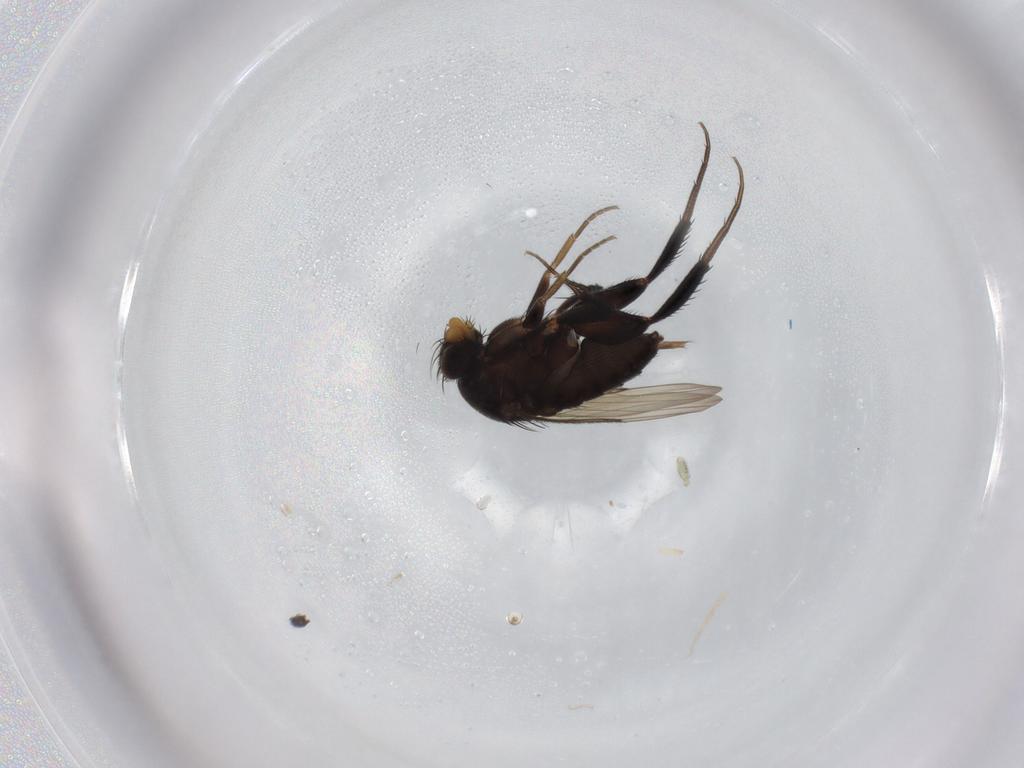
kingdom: Animalia
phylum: Arthropoda
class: Insecta
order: Diptera
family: Phoridae
